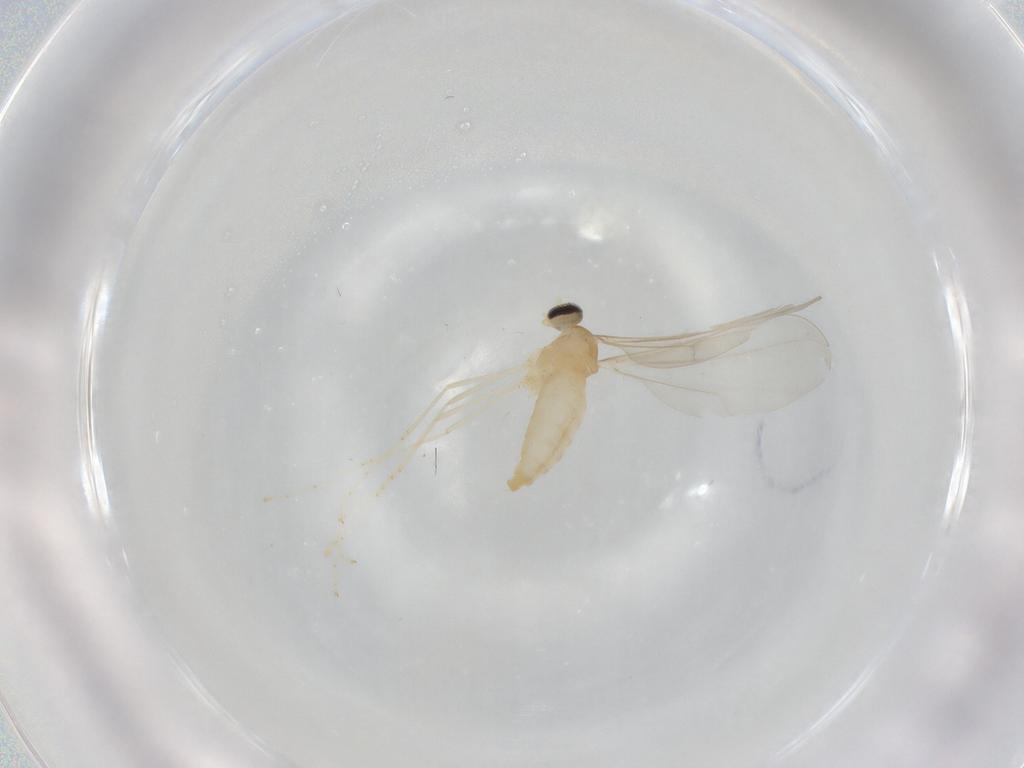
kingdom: Animalia
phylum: Arthropoda
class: Insecta
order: Diptera
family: Cecidomyiidae
